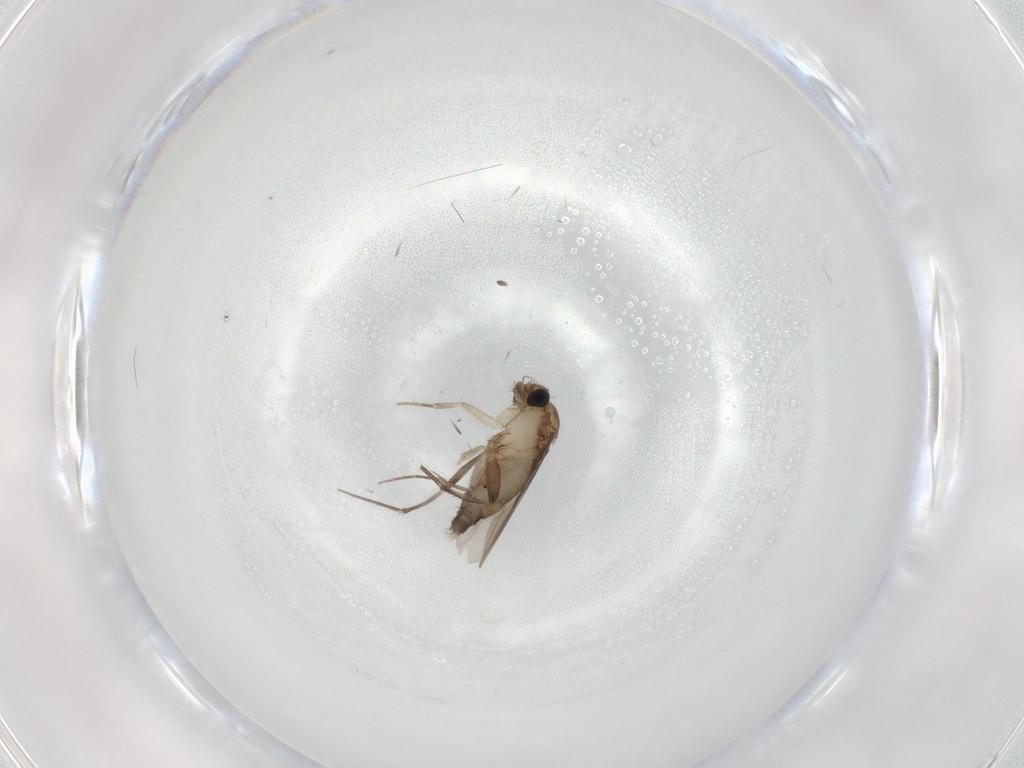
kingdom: Animalia
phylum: Arthropoda
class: Insecta
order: Diptera
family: Phoridae
